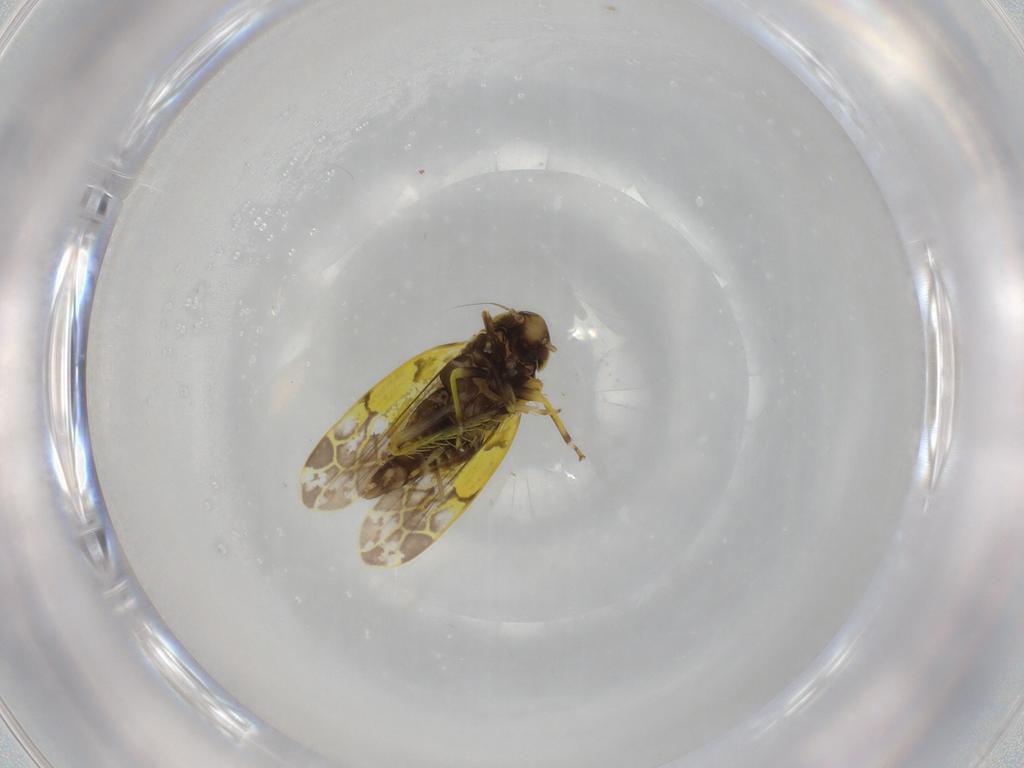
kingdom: Animalia
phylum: Arthropoda
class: Insecta
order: Hemiptera
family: Cicadellidae
